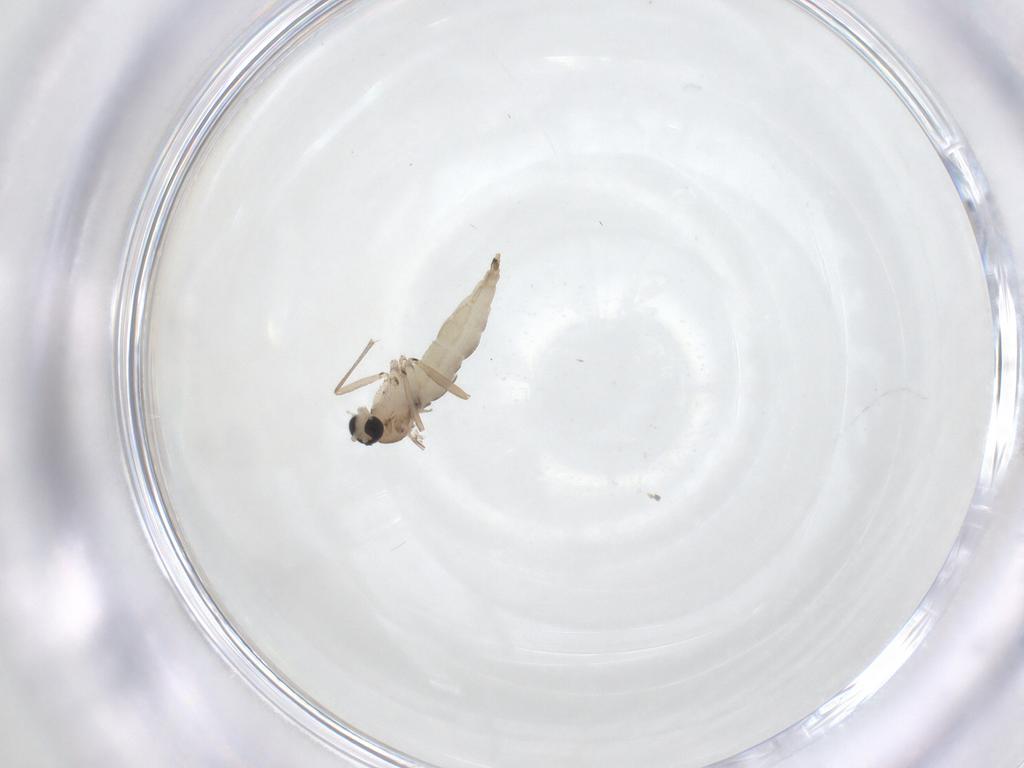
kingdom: Animalia
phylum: Arthropoda
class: Insecta
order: Diptera
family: Sciaridae
